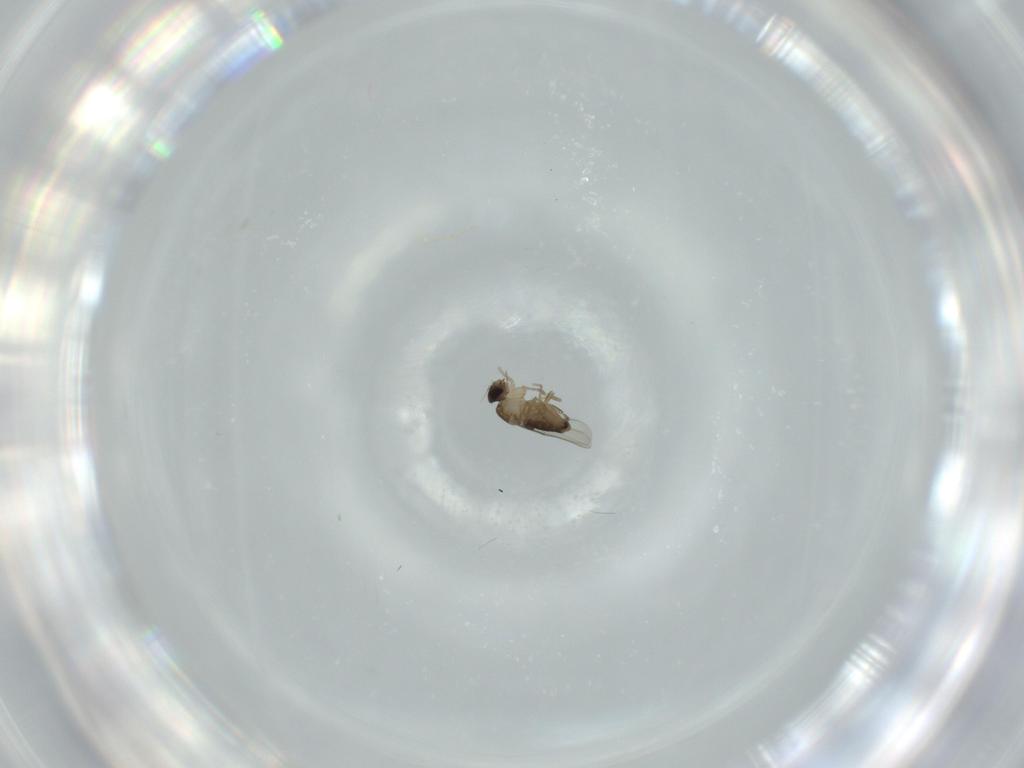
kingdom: Animalia
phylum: Arthropoda
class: Insecta
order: Diptera
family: Phoridae
